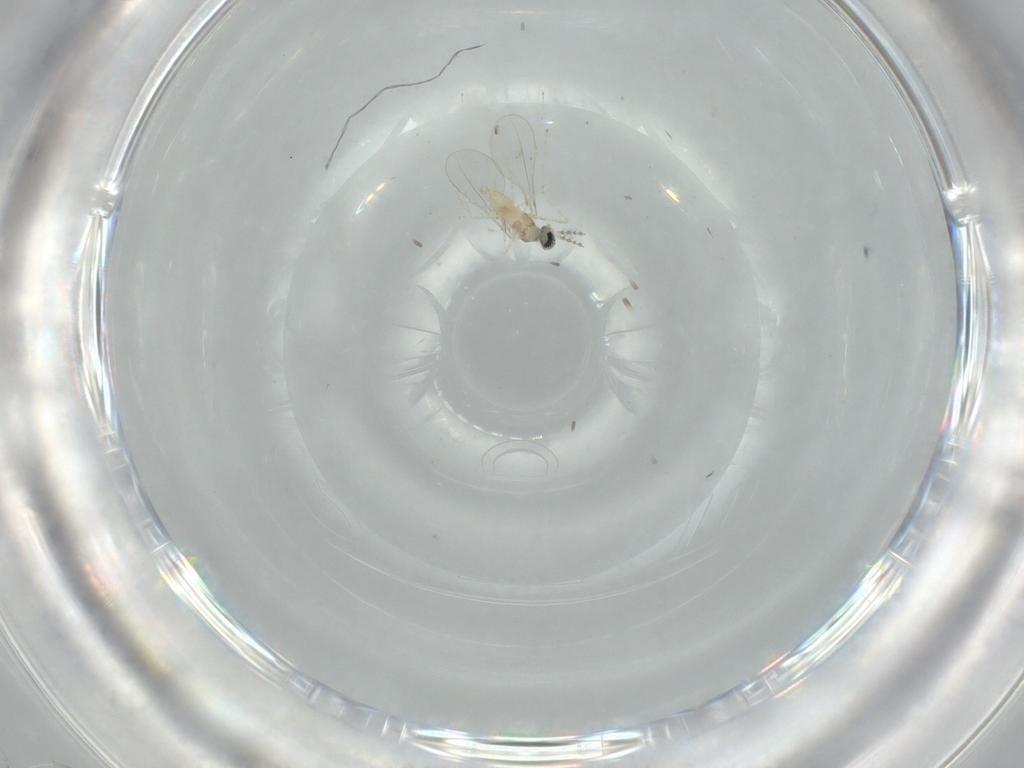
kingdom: Animalia
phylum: Arthropoda
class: Insecta
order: Diptera
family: Cecidomyiidae
